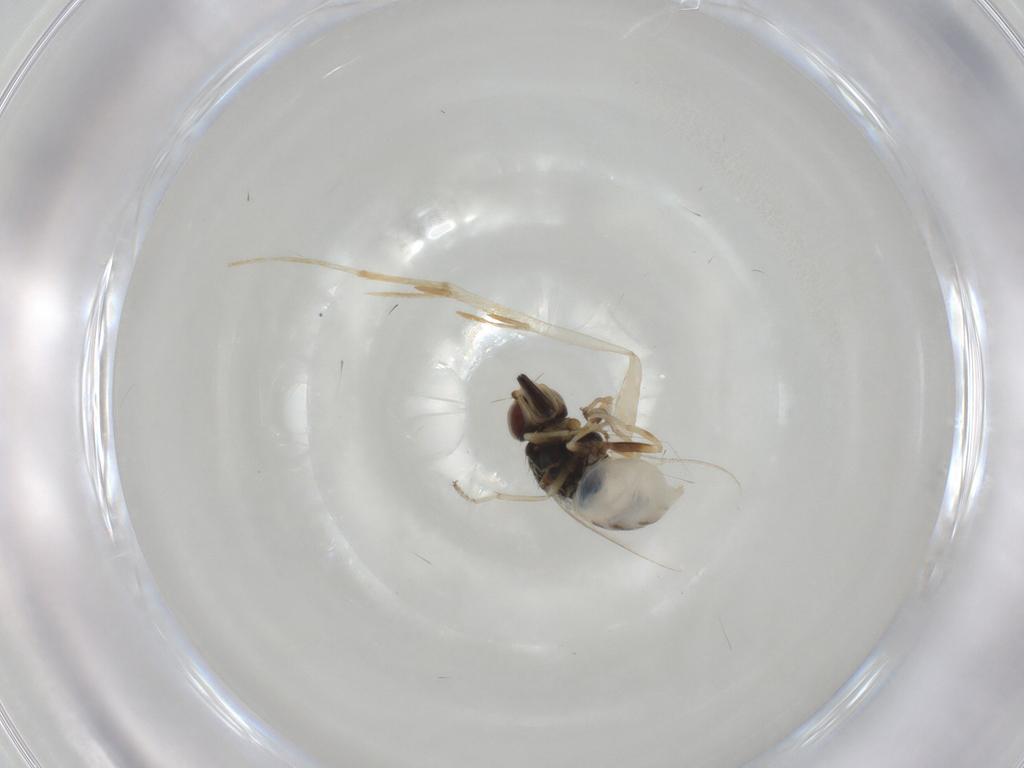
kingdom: Animalia
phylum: Arthropoda
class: Insecta
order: Diptera
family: Chloropidae
